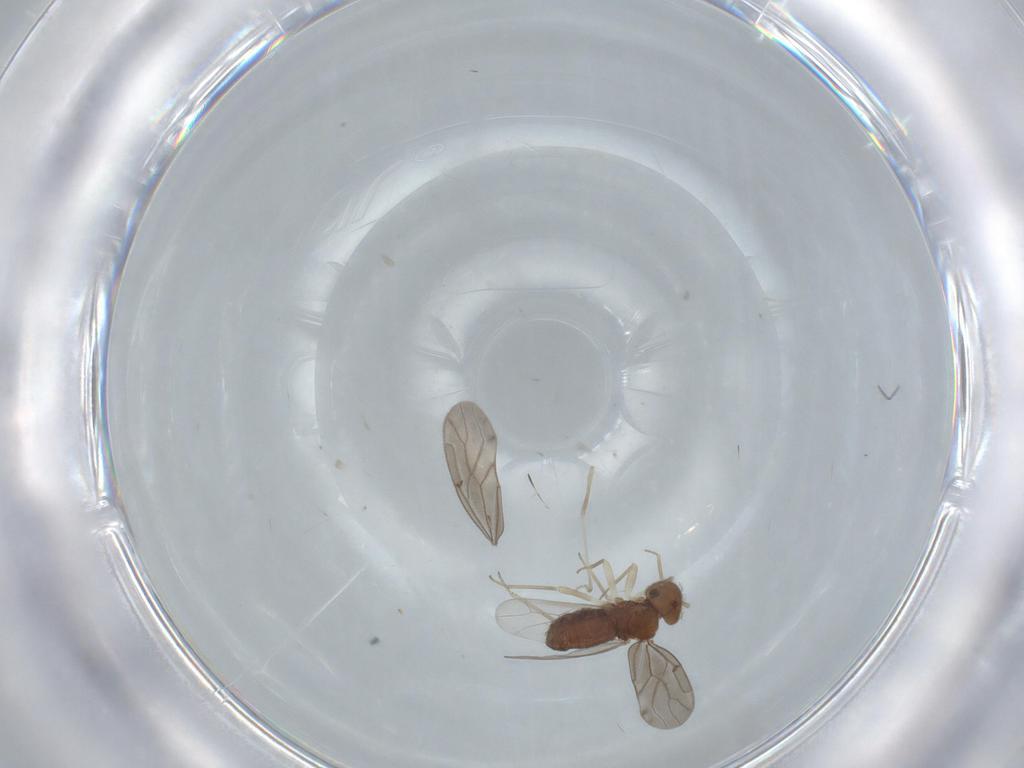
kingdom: Animalia
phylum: Arthropoda
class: Insecta
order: Psocodea
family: Ectopsocidae
